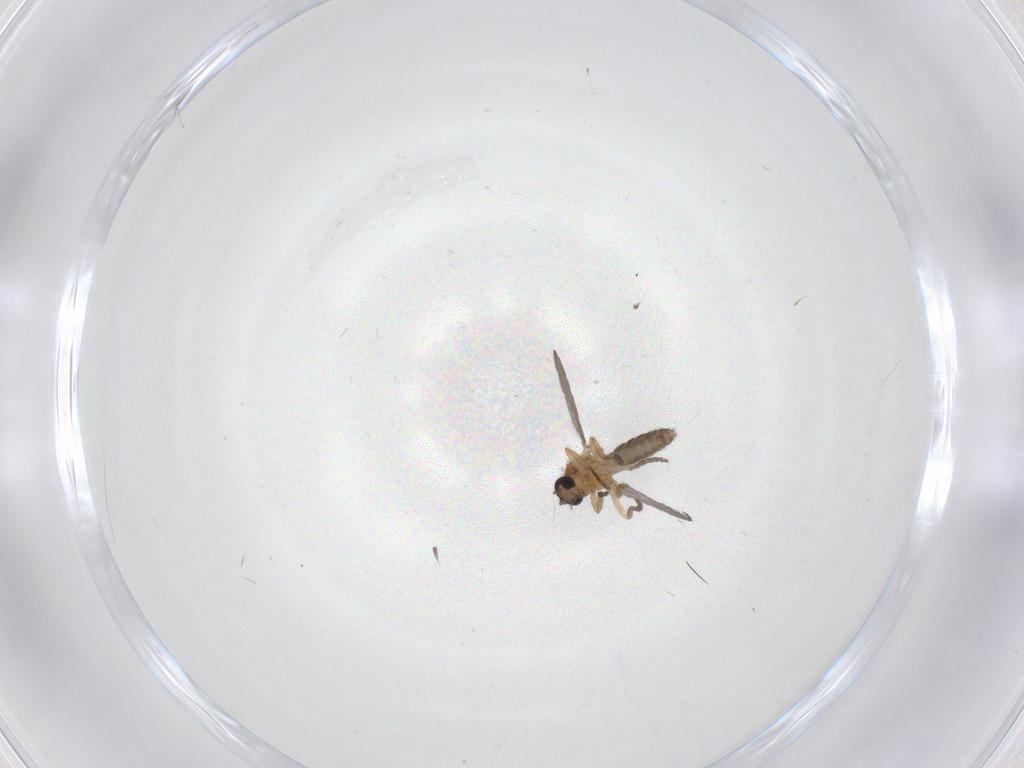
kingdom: Animalia
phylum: Arthropoda
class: Insecta
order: Diptera
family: Ceratopogonidae
